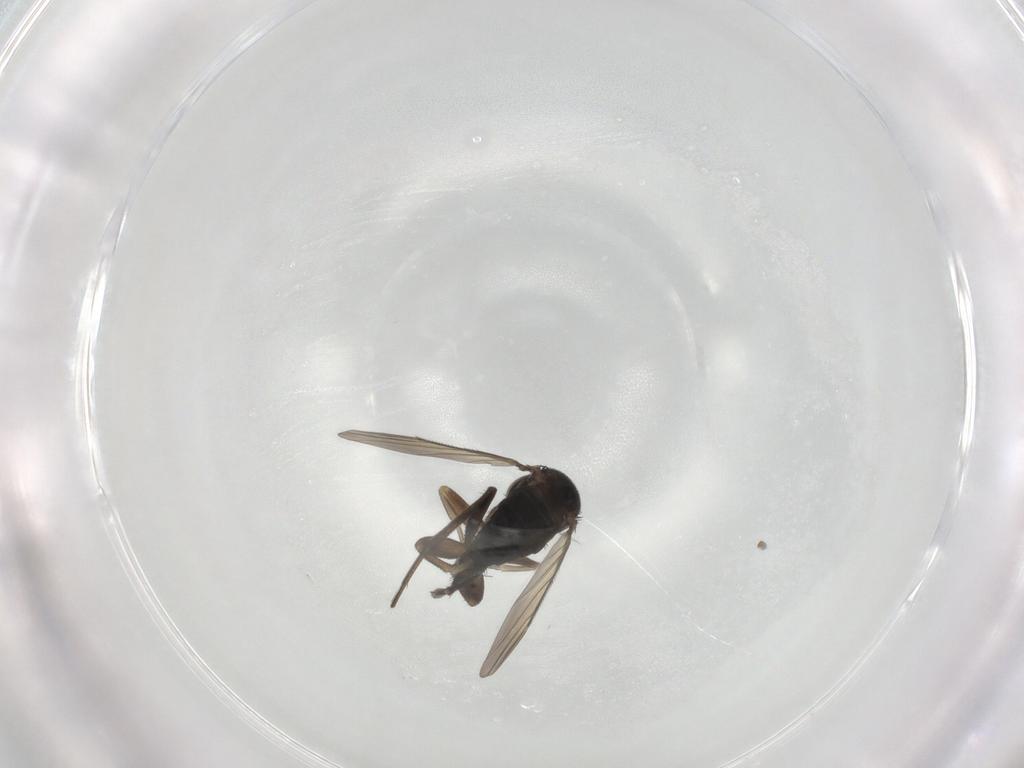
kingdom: Animalia
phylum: Arthropoda
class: Insecta
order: Diptera
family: Phoridae
